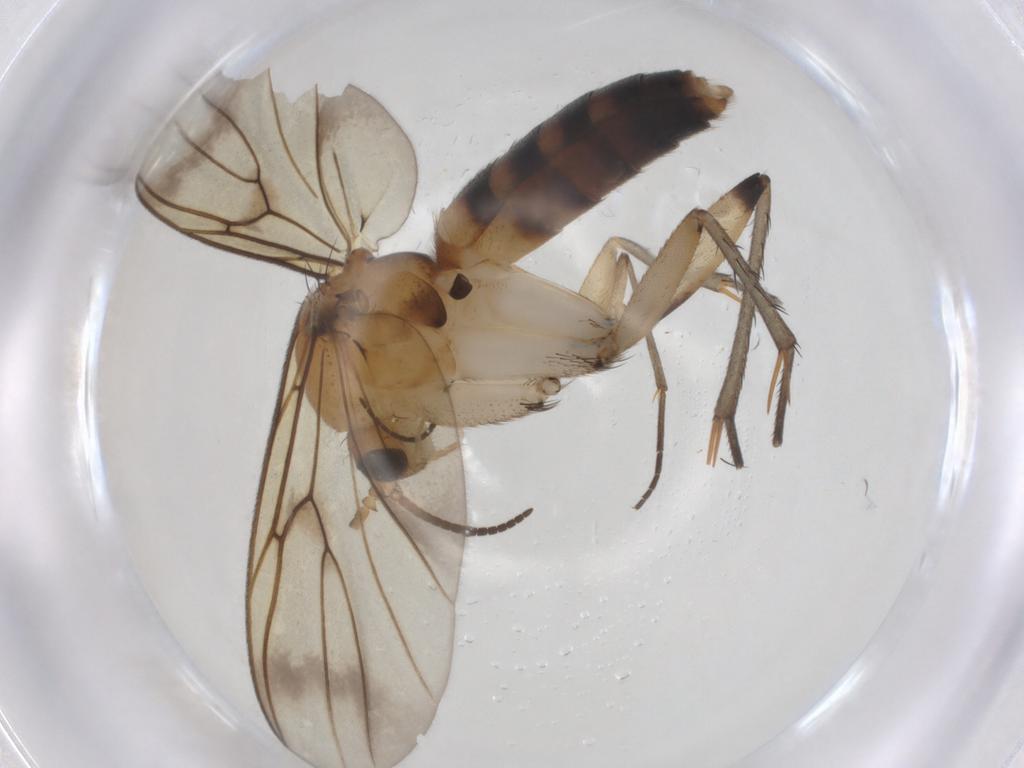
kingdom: Animalia
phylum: Arthropoda
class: Insecta
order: Diptera
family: Mycetophilidae
